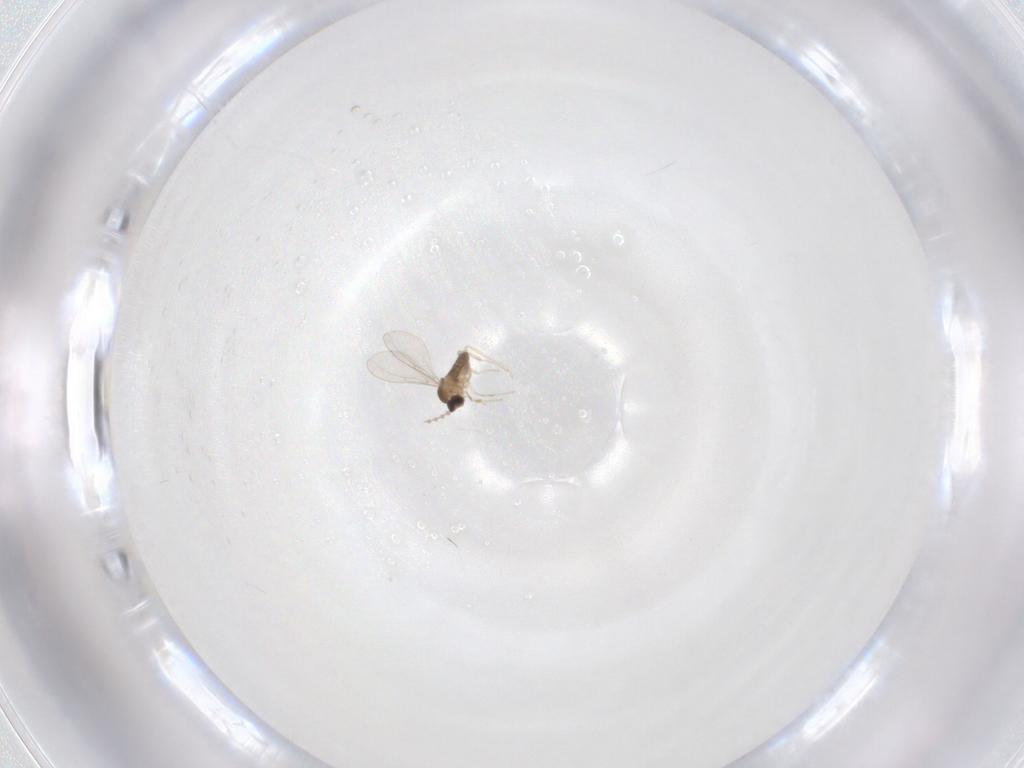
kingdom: Animalia
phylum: Arthropoda
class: Insecta
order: Diptera
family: Cecidomyiidae
